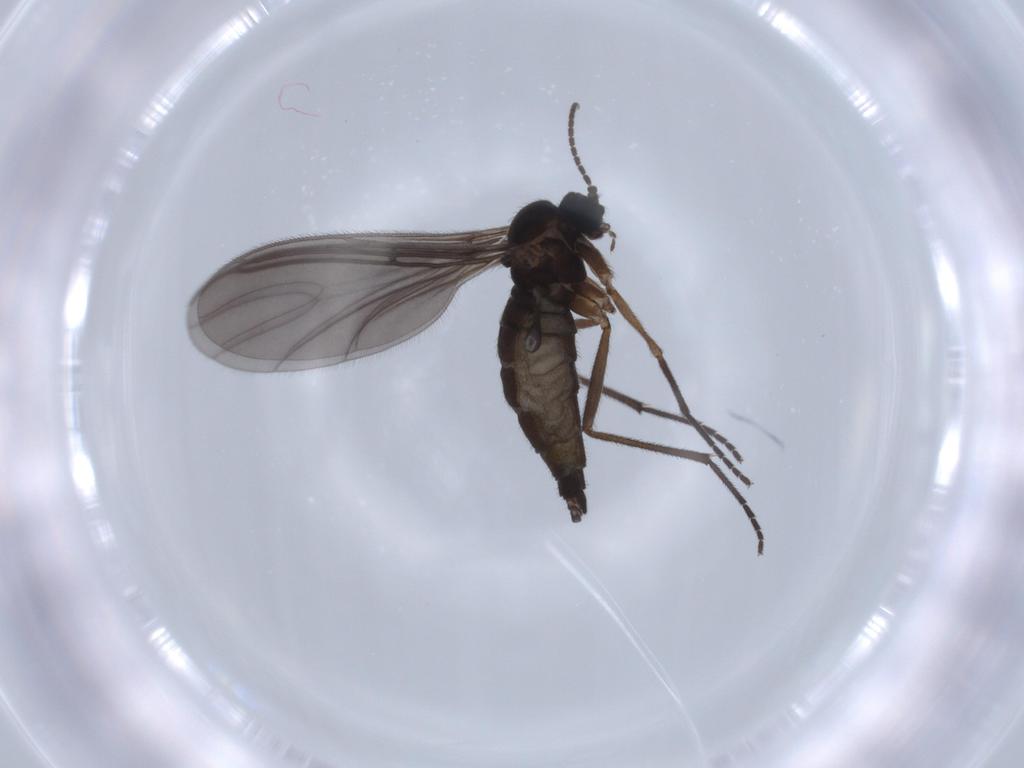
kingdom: Animalia
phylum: Arthropoda
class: Insecta
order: Diptera
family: Sciaridae
